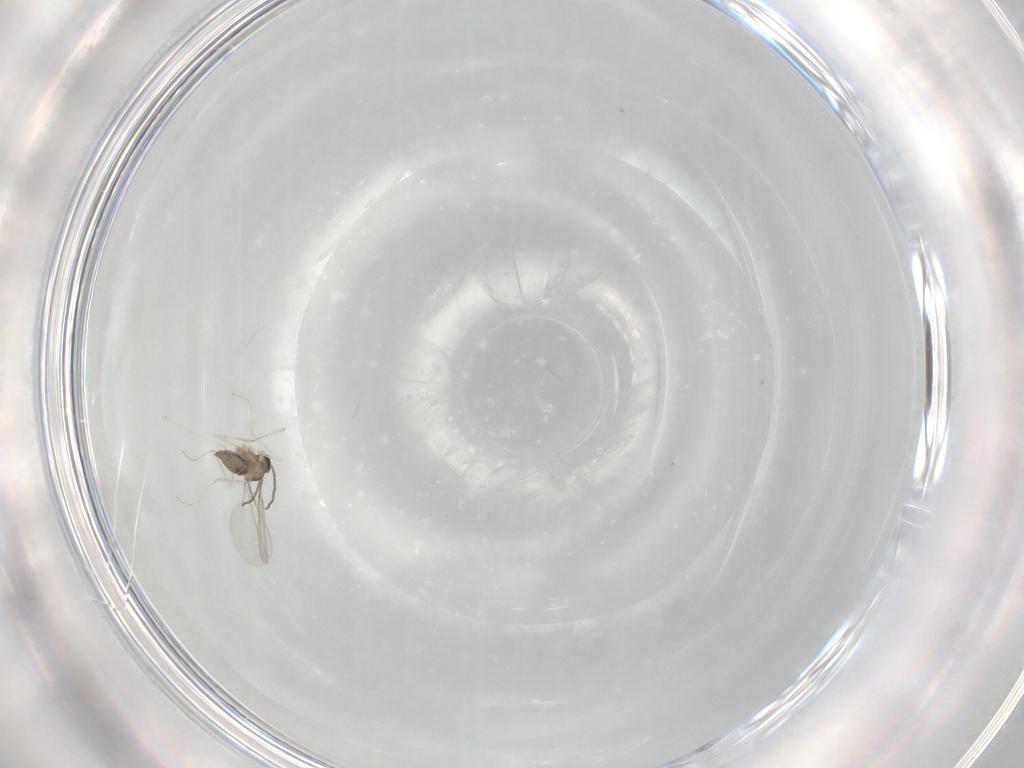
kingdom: Animalia
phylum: Arthropoda
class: Insecta
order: Diptera
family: Cecidomyiidae
